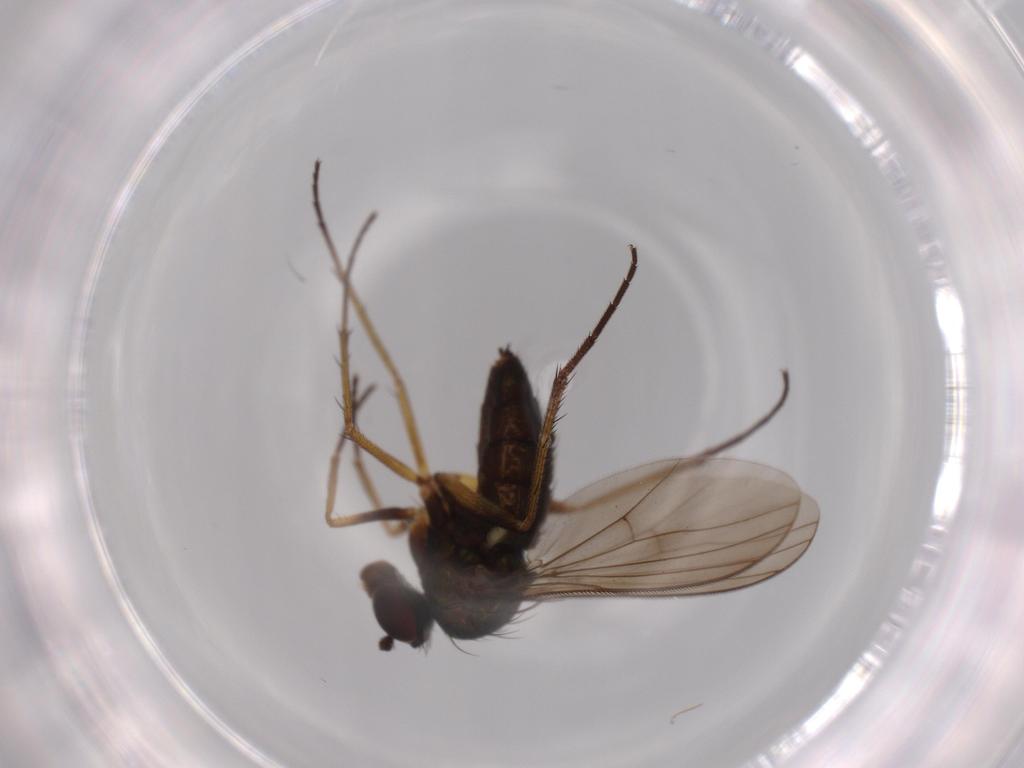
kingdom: Animalia
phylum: Arthropoda
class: Insecta
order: Diptera
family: Dolichopodidae
